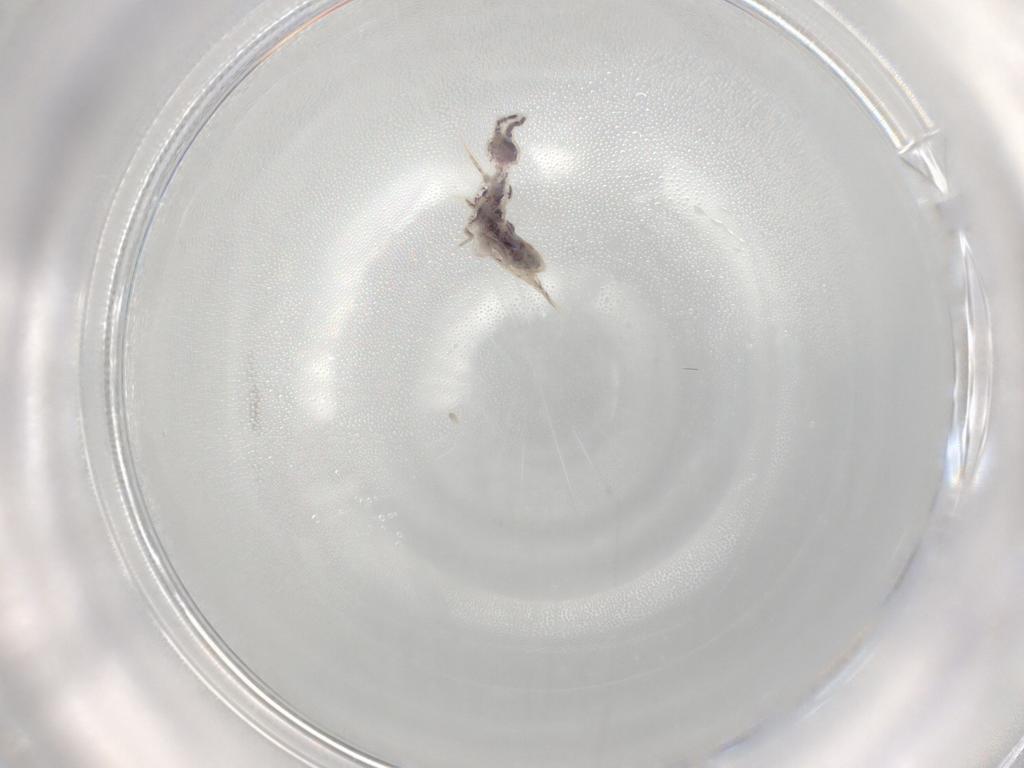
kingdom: Animalia
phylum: Arthropoda
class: Collembola
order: Entomobryomorpha
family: Isotomidae
